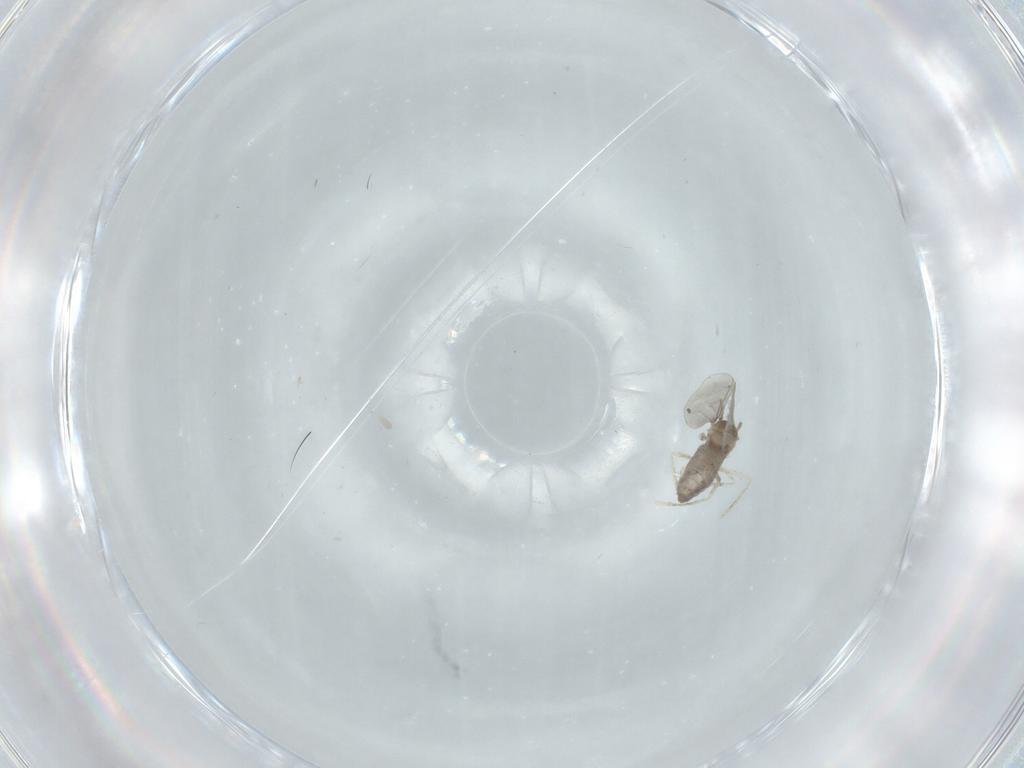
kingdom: Animalia
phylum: Arthropoda
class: Insecta
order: Diptera
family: Cecidomyiidae
